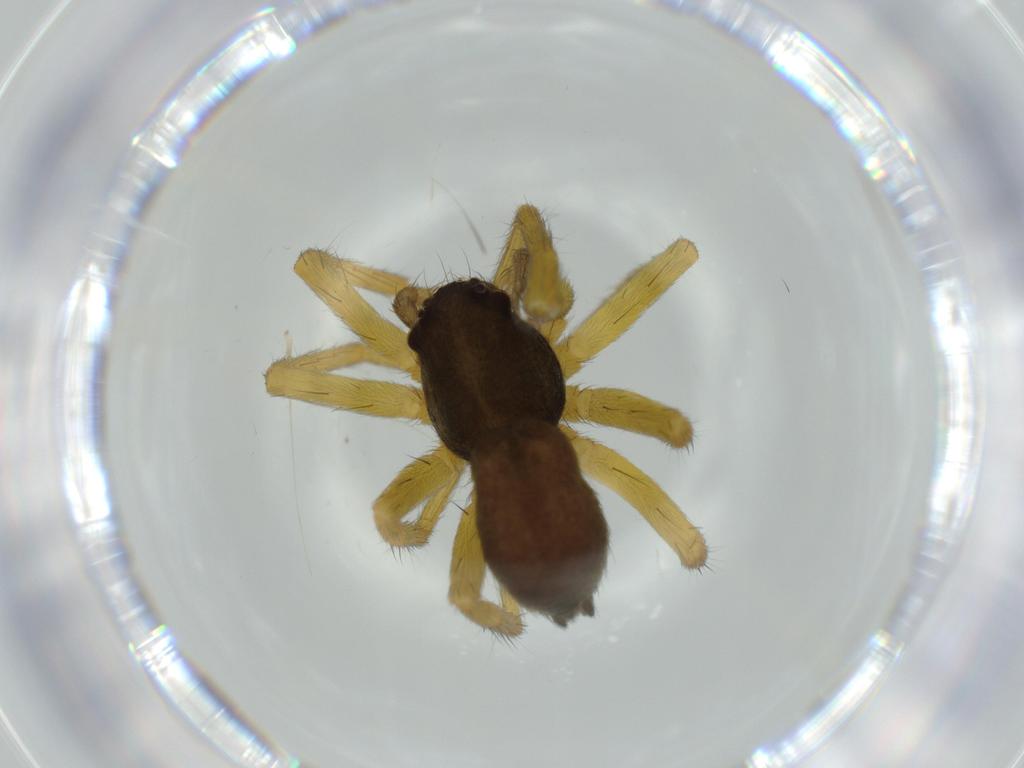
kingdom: Animalia
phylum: Arthropoda
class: Arachnida
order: Araneae
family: Trachelidae
